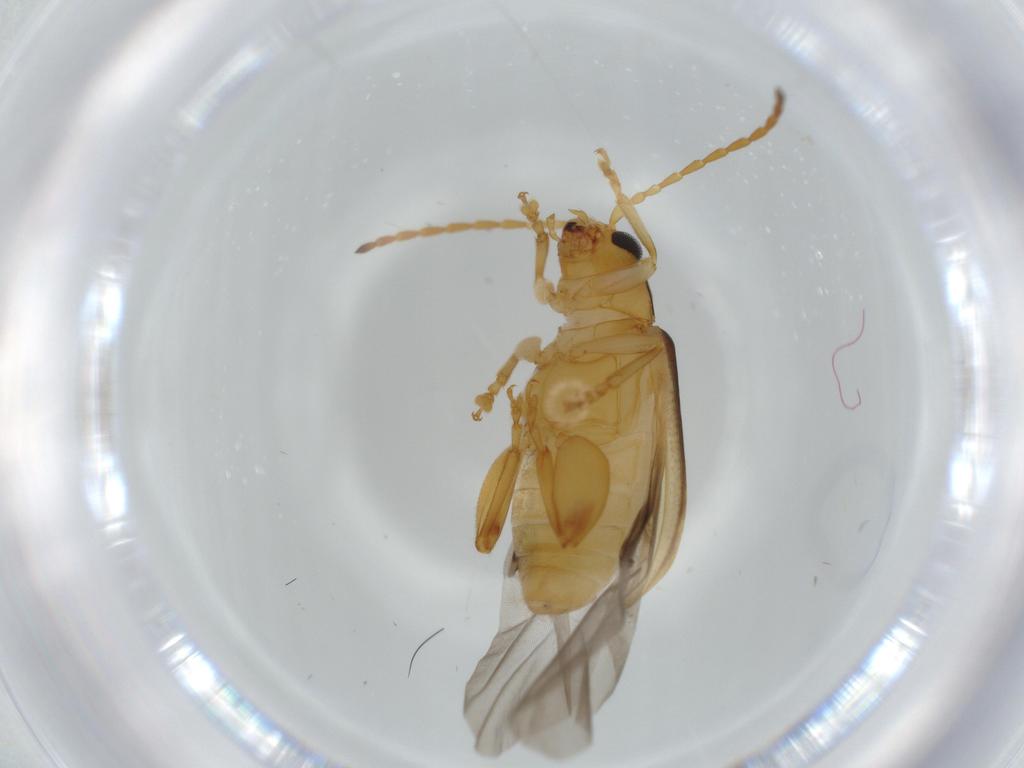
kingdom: Animalia
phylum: Arthropoda
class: Insecta
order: Coleoptera
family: Chrysomelidae
